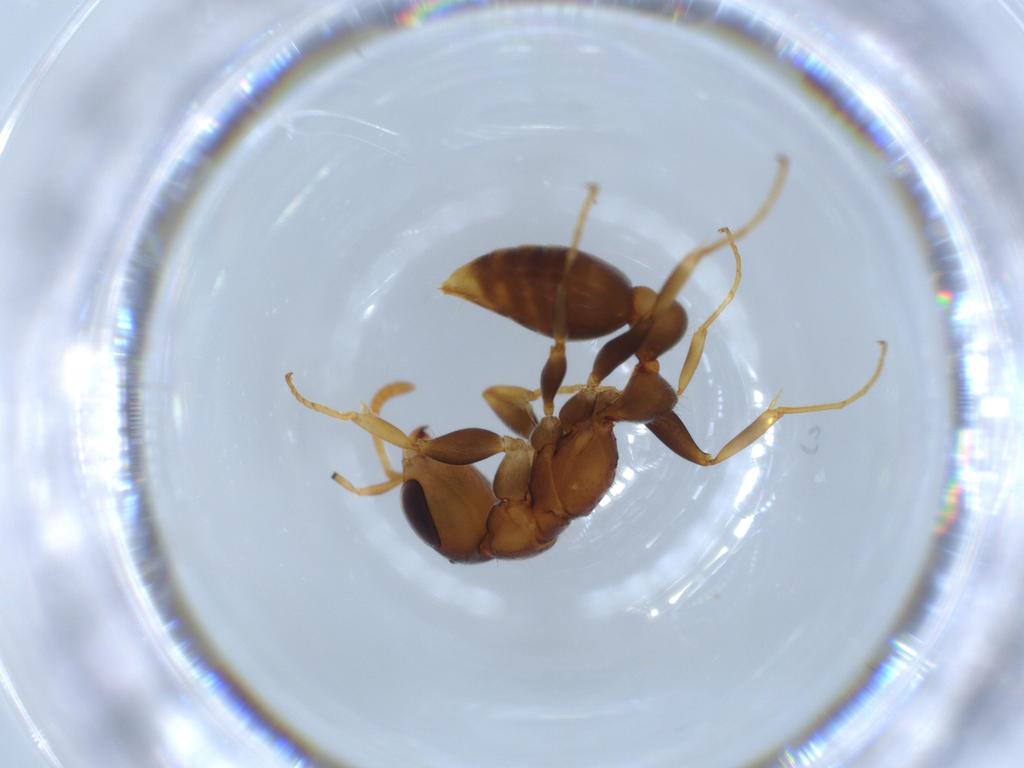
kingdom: Animalia
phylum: Arthropoda
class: Insecta
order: Hymenoptera
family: Formicidae
